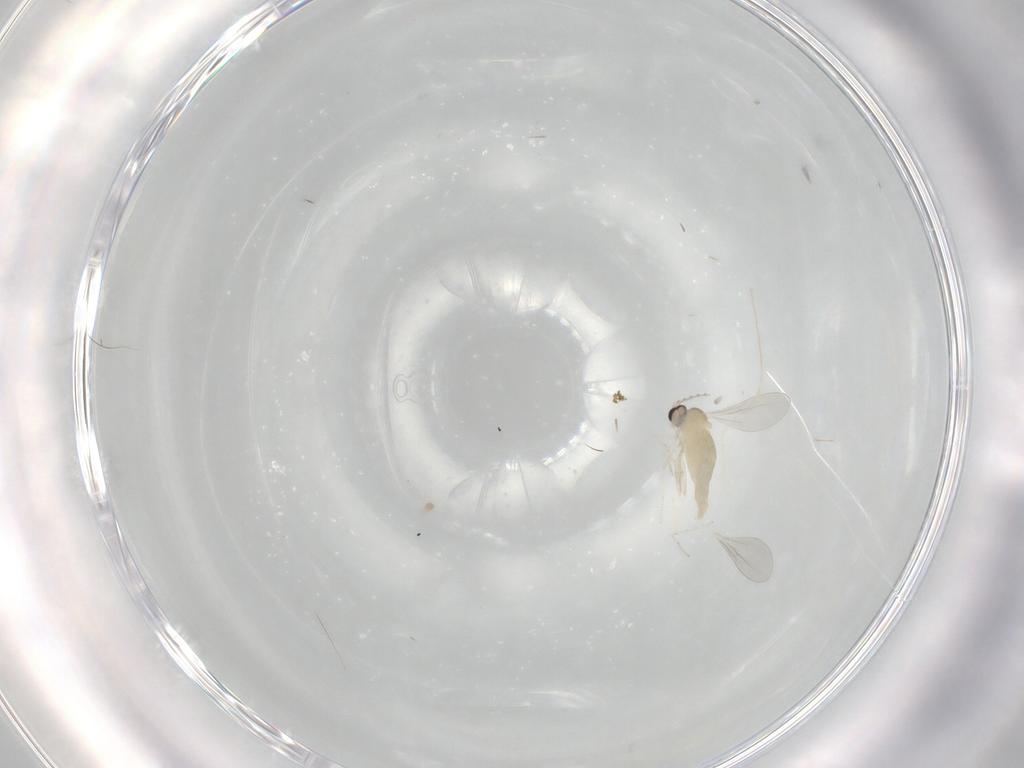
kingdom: Animalia
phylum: Arthropoda
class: Insecta
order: Diptera
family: Cecidomyiidae
